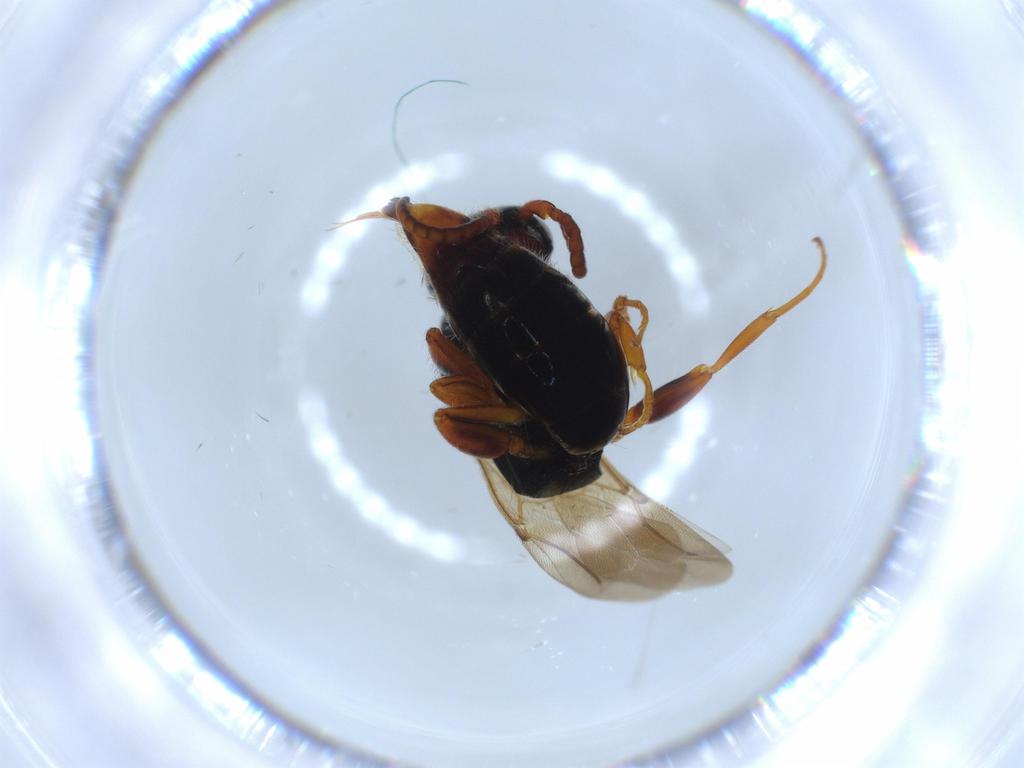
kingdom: Animalia
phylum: Arthropoda
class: Insecta
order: Hymenoptera
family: Bethylidae
